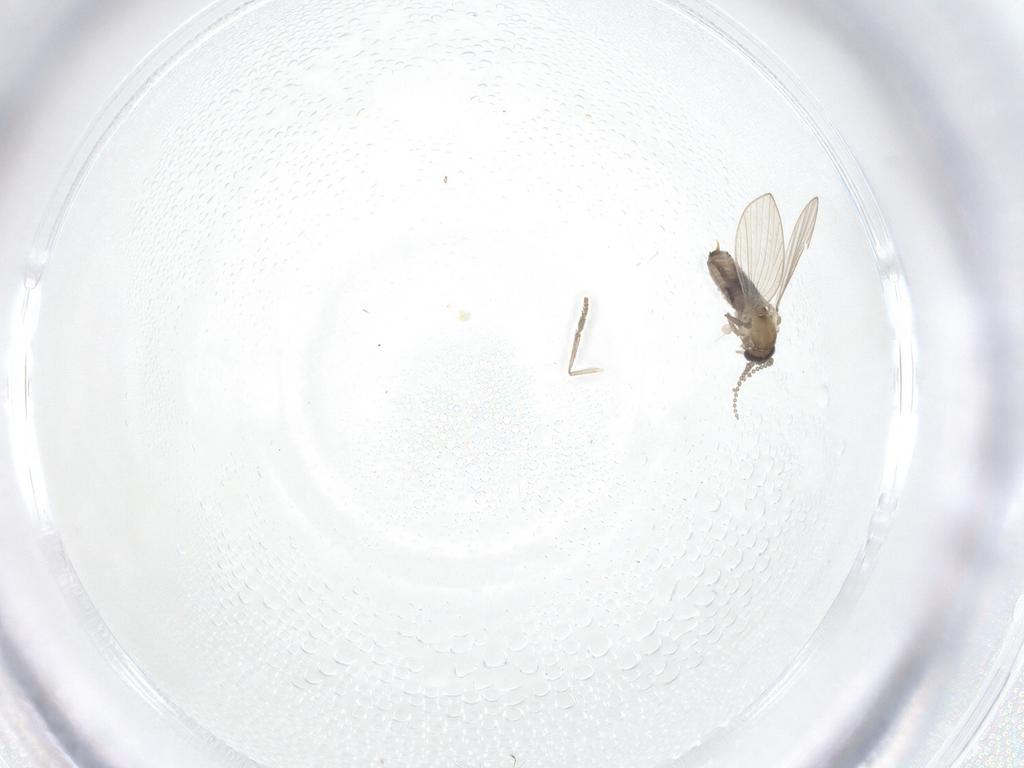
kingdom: Animalia
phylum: Arthropoda
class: Insecta
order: Diptera
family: Psychodidae
